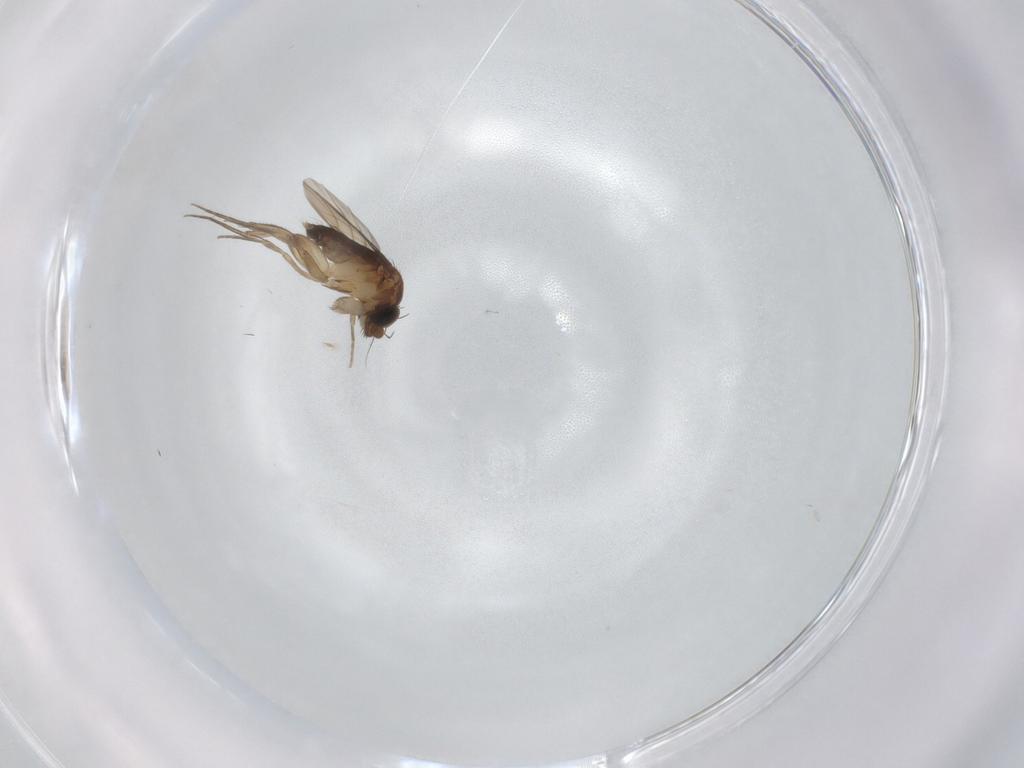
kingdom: Animalia
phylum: Arthropoda
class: Insecta
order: Diptera
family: Phoridae
